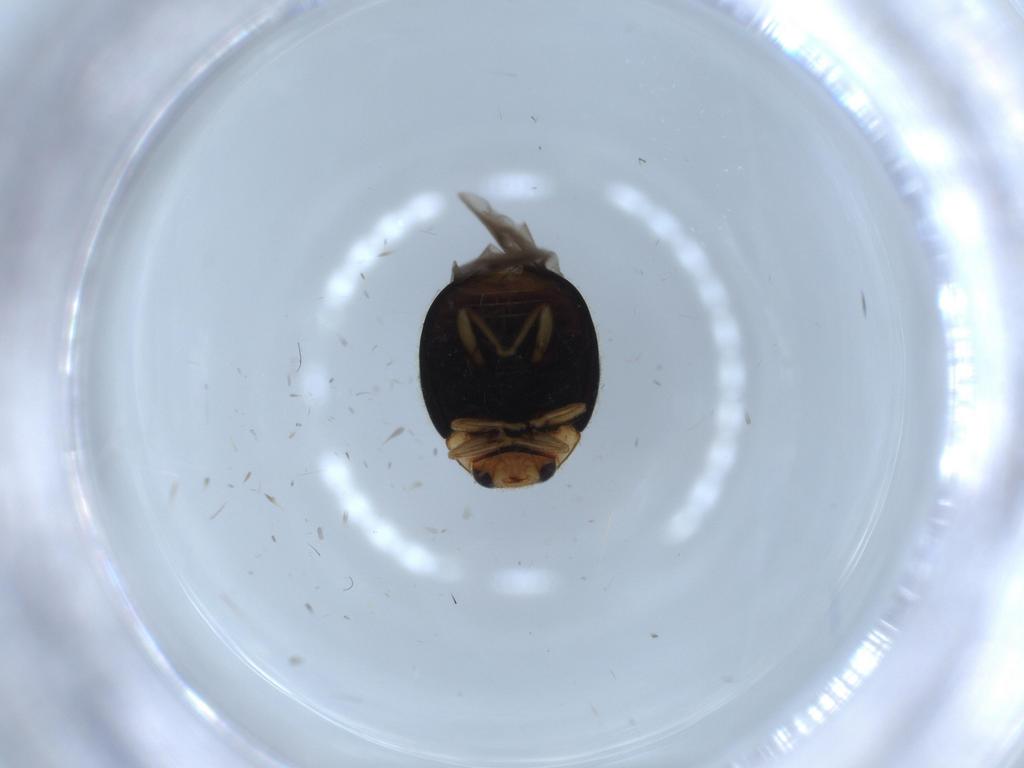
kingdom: Animalia
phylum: Arthropoda
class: Insecta
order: Coleoptera
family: Coccinellidae
